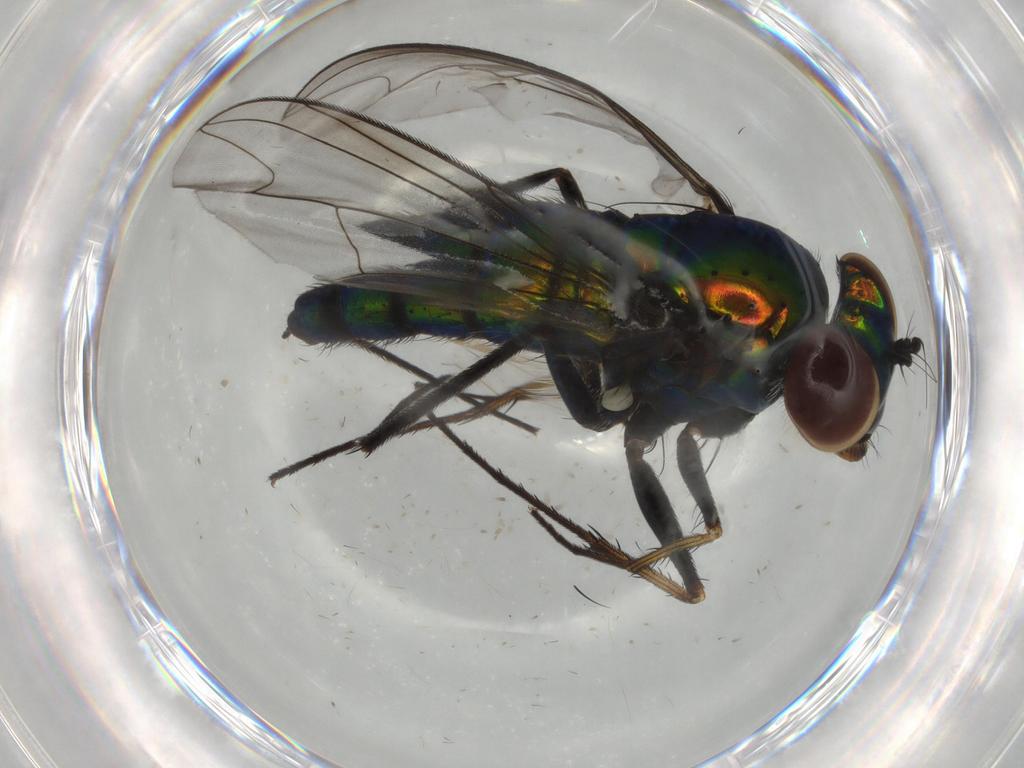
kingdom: Animalia
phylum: Arthropoda
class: Insecta
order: Diptera
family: Dolichopodidae
